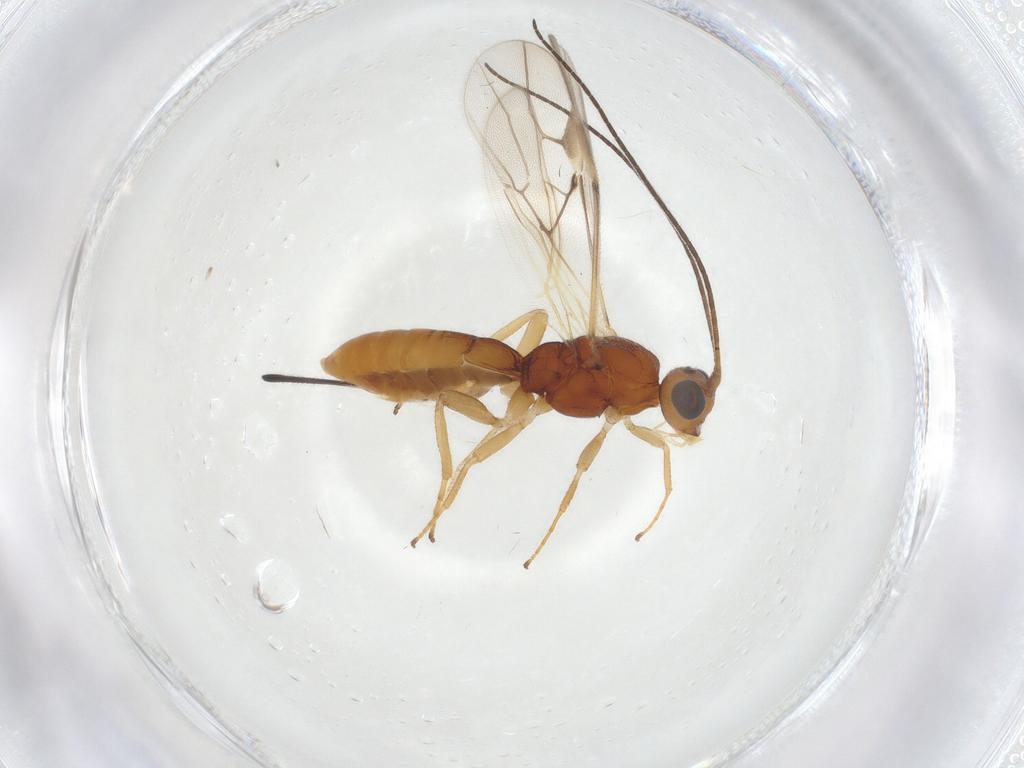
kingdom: Animalia
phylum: Arthropoda
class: Insecta
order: Hymenoptera
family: Braconidae
